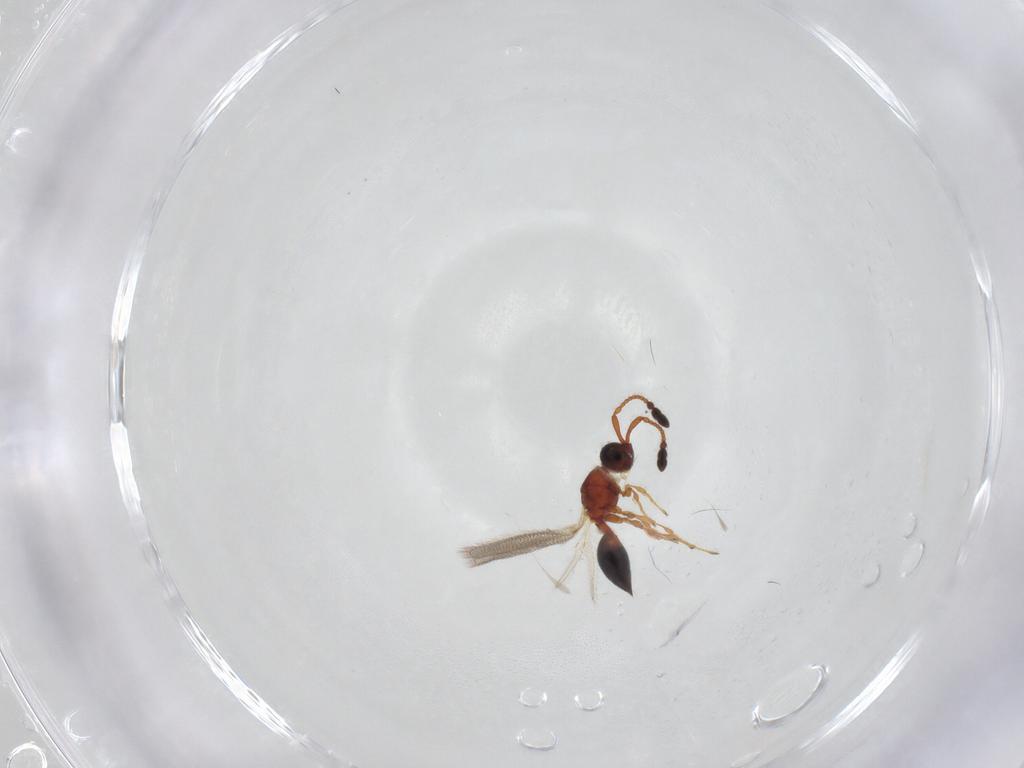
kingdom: Animalia
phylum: Arthropoda
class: Insecta
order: Hymenoptera
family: Diapriidae
